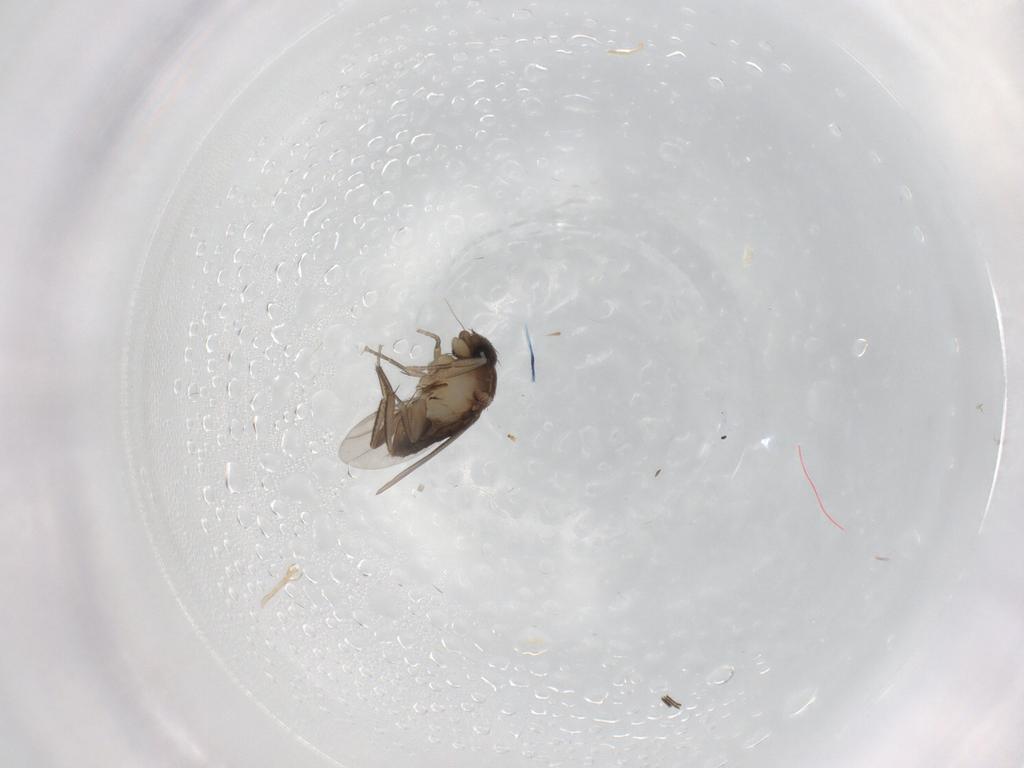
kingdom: Animalia
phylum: Arthropoda
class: Insecta
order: Diptera
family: Phoridae
